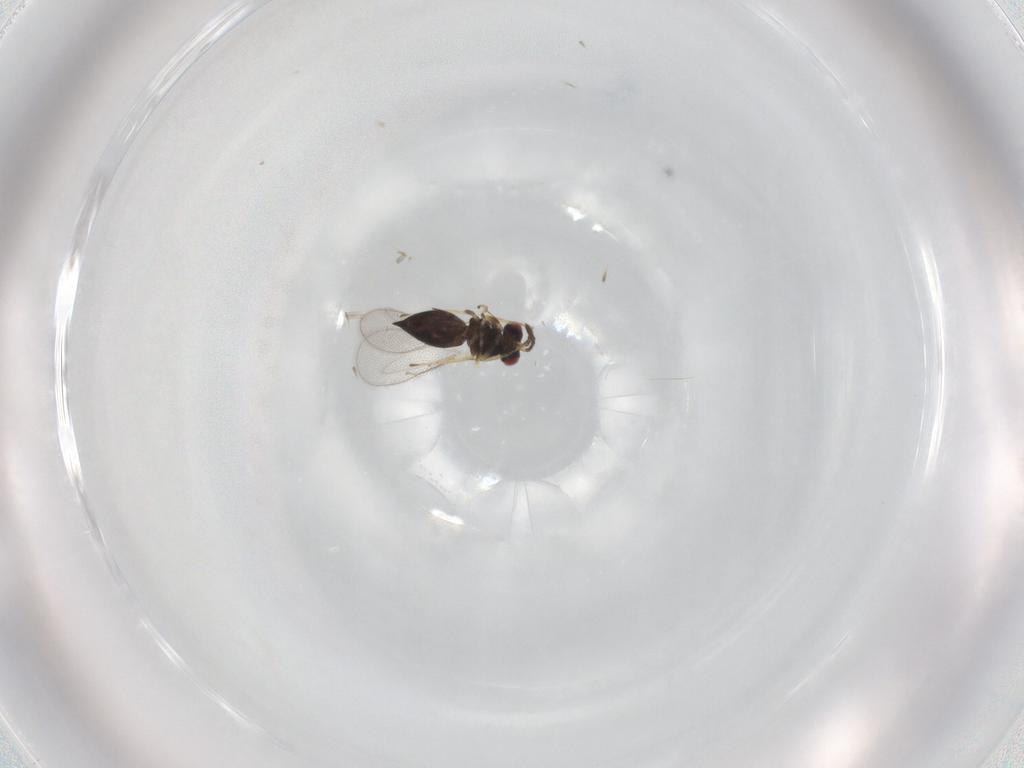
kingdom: Animalia
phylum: Arthropoda
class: Insecta
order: Hymenoptera
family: Eulophidae
